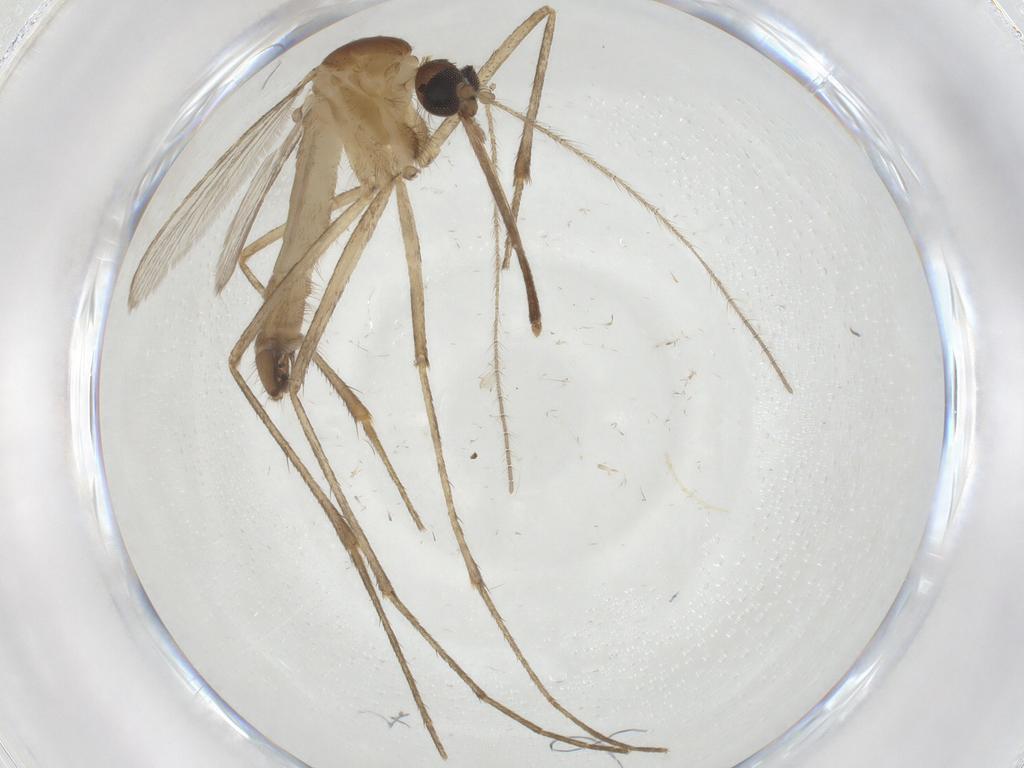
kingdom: Animalia
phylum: Arthropoda
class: Insecta
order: Diptera
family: Culicidae
